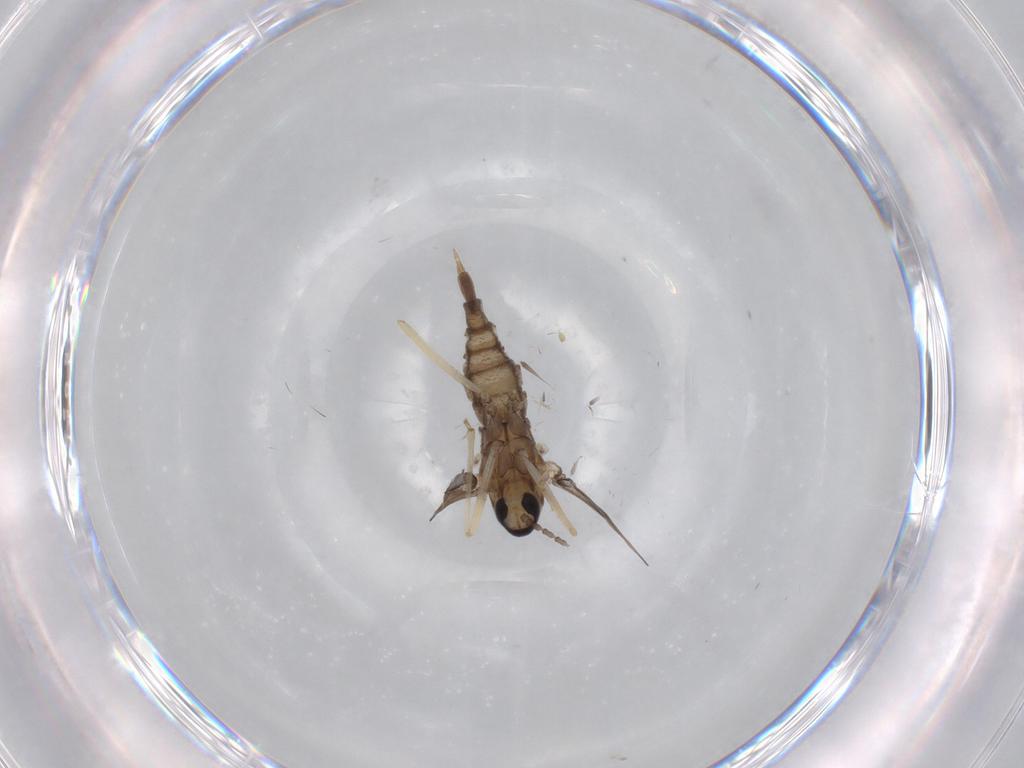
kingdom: Animalia
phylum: Arthropoda
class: Insecta
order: Diptera
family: Cecidomyiidae
